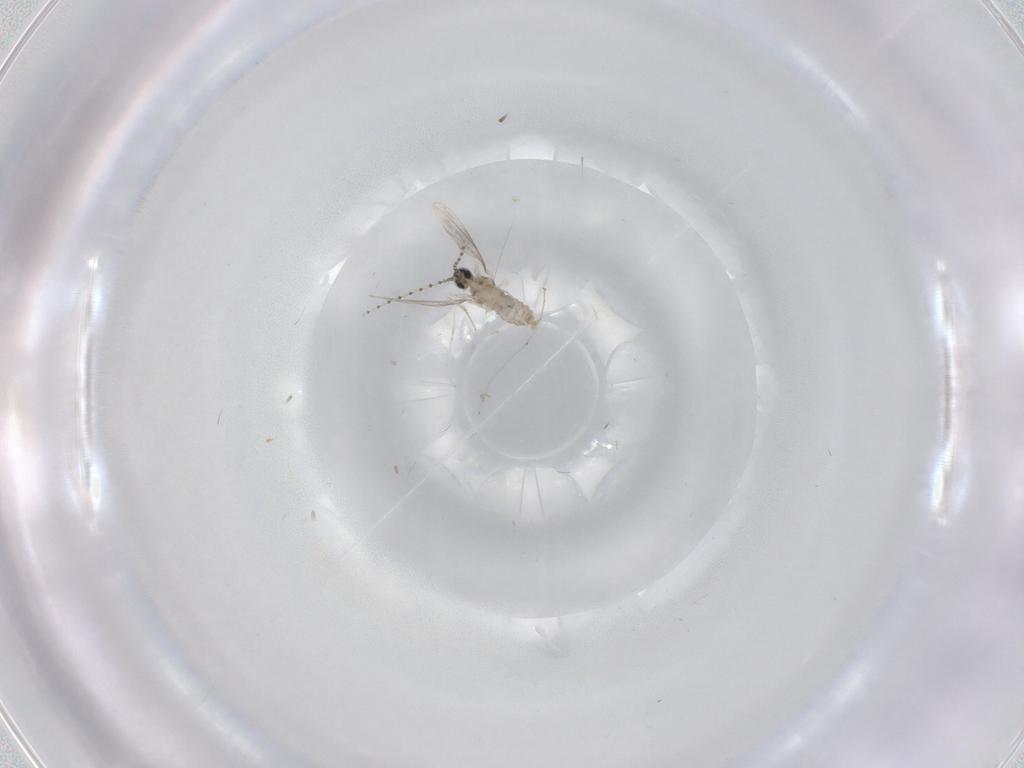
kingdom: Animalia
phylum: Arthropoda
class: Insecta
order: Diptera
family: Cecidomyiidae
